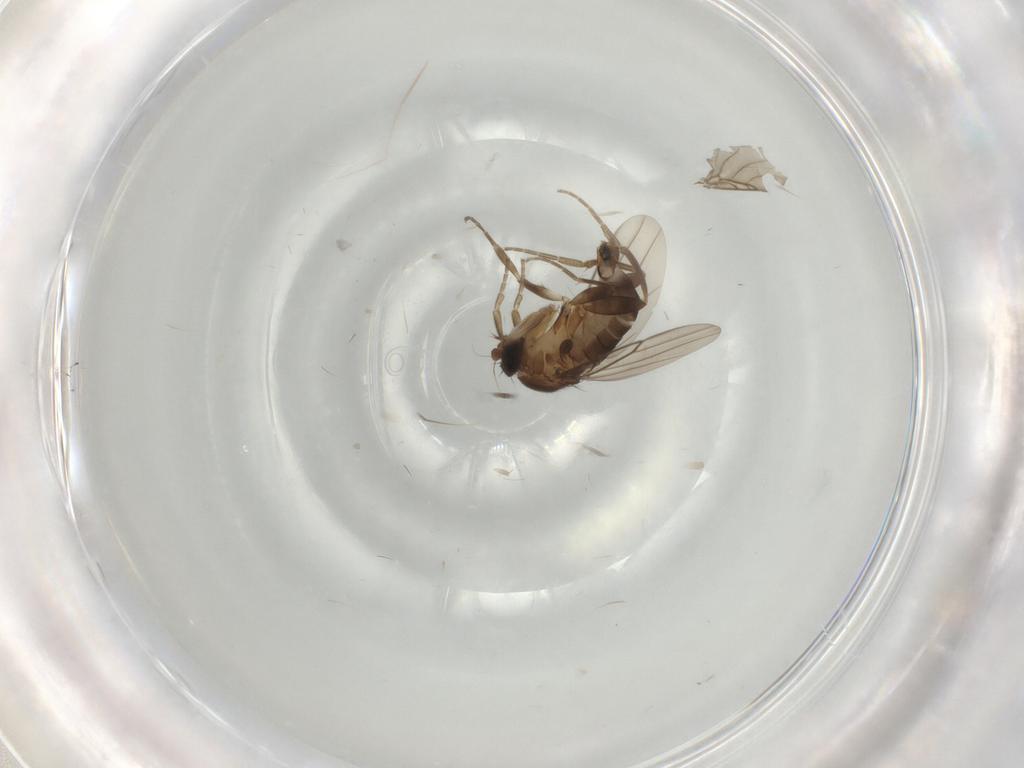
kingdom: Animalia
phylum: Arthropoda
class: Insecta
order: Diptera
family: Phoridae
